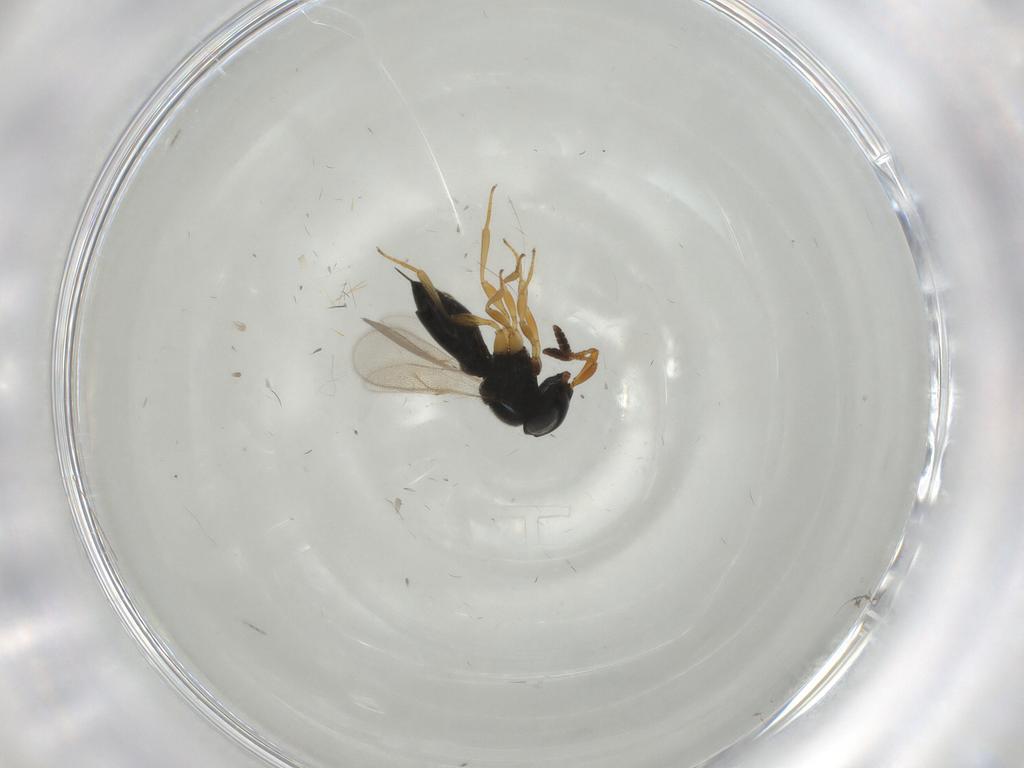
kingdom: Animalia
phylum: Arthropoda
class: Insecta
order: Hymenoptera
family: Scelionidae
